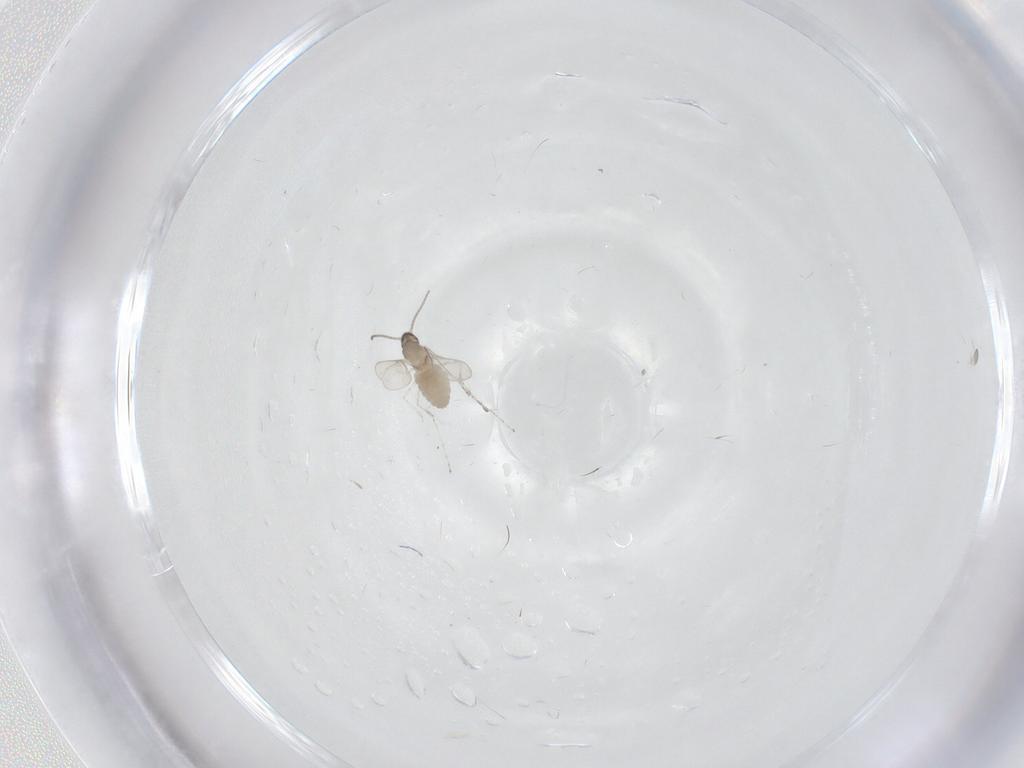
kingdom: Animalia
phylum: Arthropoda
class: Insecta
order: Diptera
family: Cecidomyiidae
